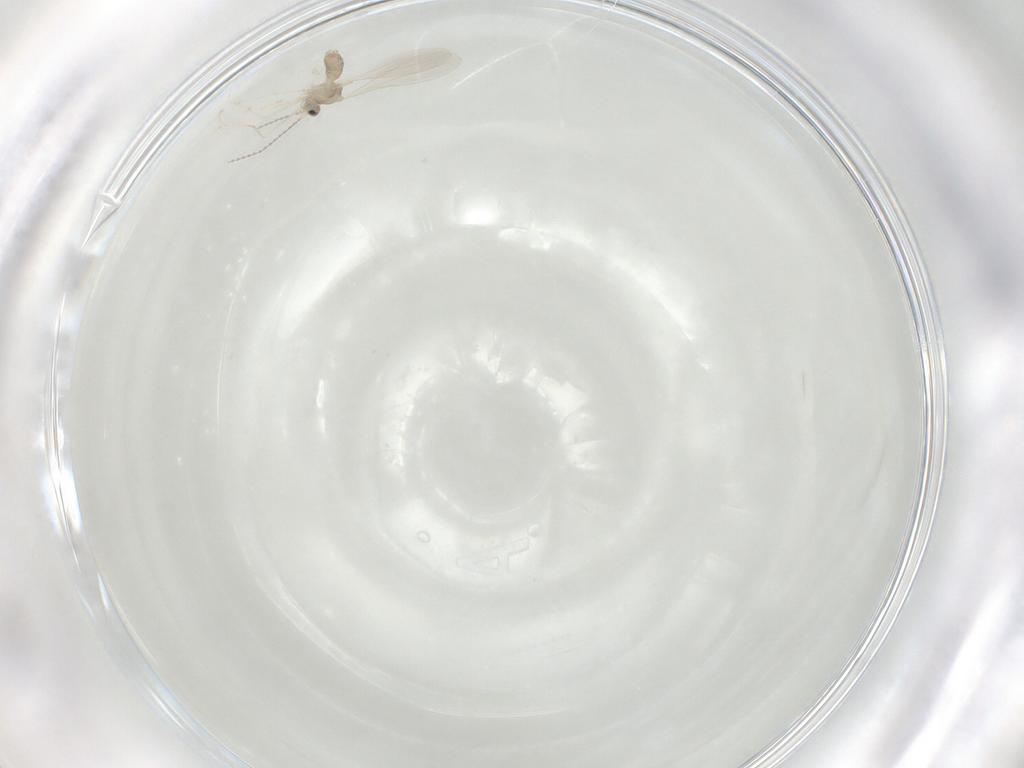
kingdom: Animalia
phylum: Arthropoda
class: Insecta
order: Diptera
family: Cecidomyiidae
